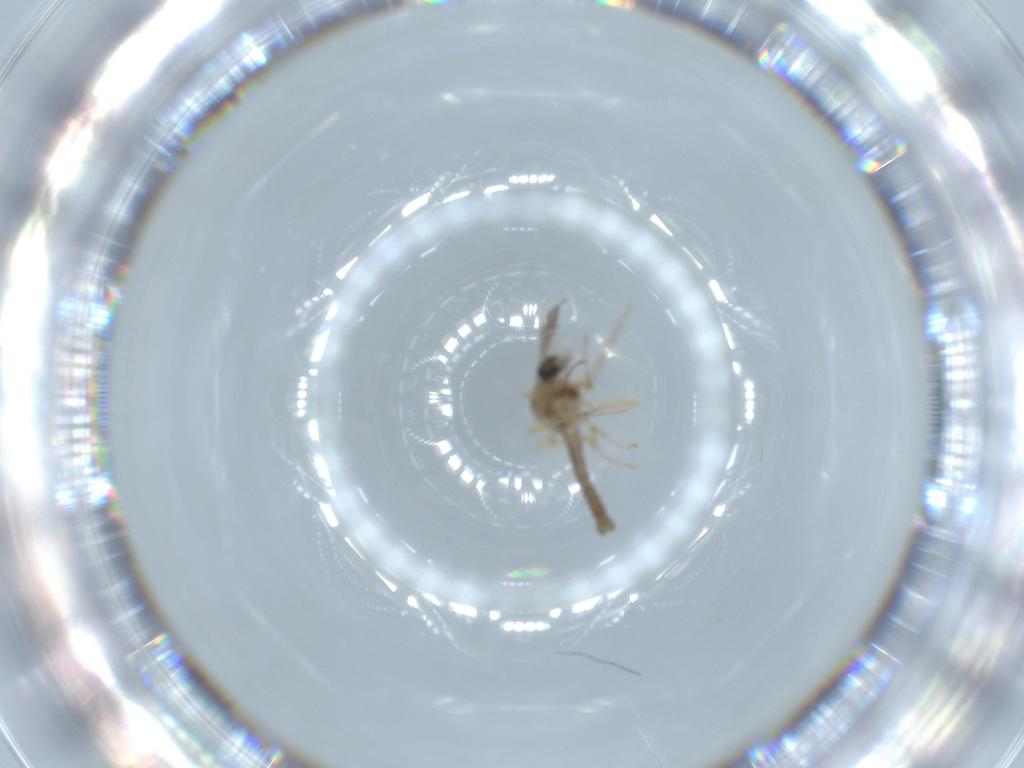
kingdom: Animalia
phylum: Arthropoda
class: Insecta
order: Diptera
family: Ceratopogonidae
